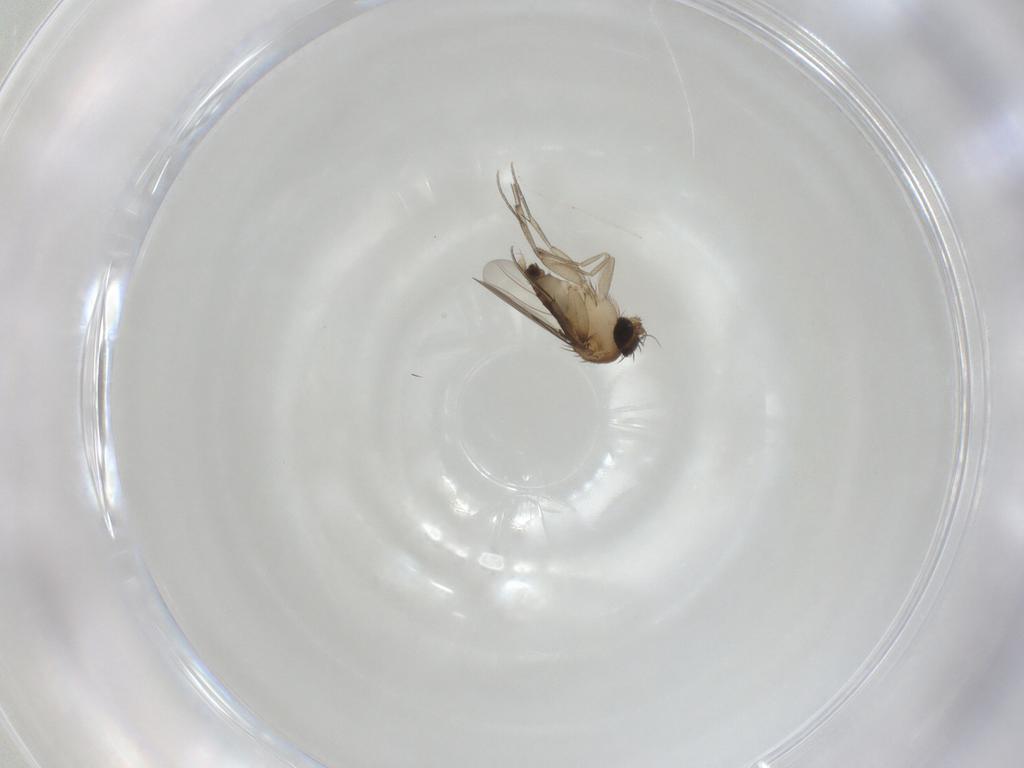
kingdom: Animalia
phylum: Arthropoda
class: Insecta
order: Diptera
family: Phoridae
